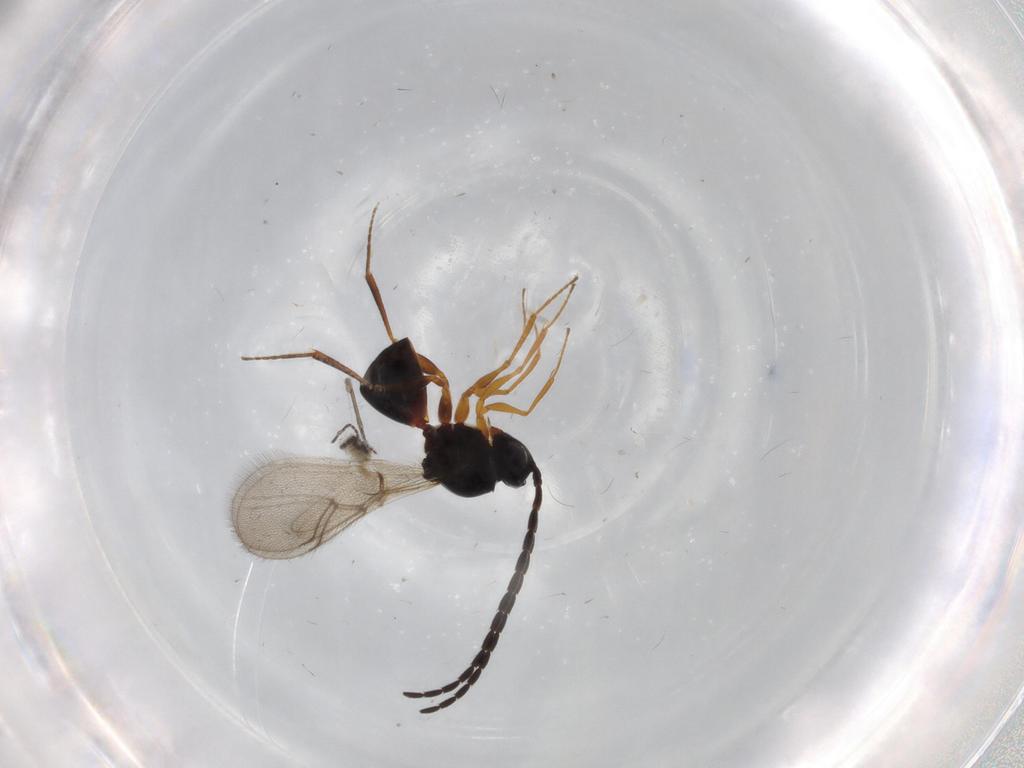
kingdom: Animalia
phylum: Arthropoda
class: Insecta
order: Hymenoptera
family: Figitidae
